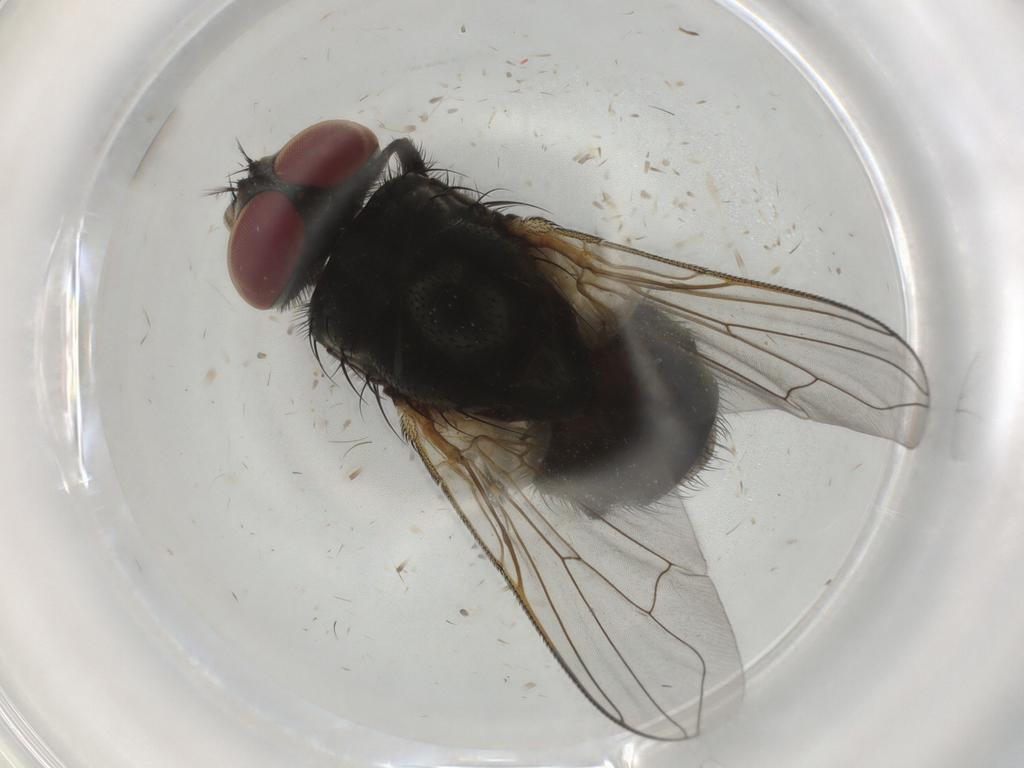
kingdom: Animalia
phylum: Arthropoda
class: Insecta
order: Diptera
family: Muscidae
